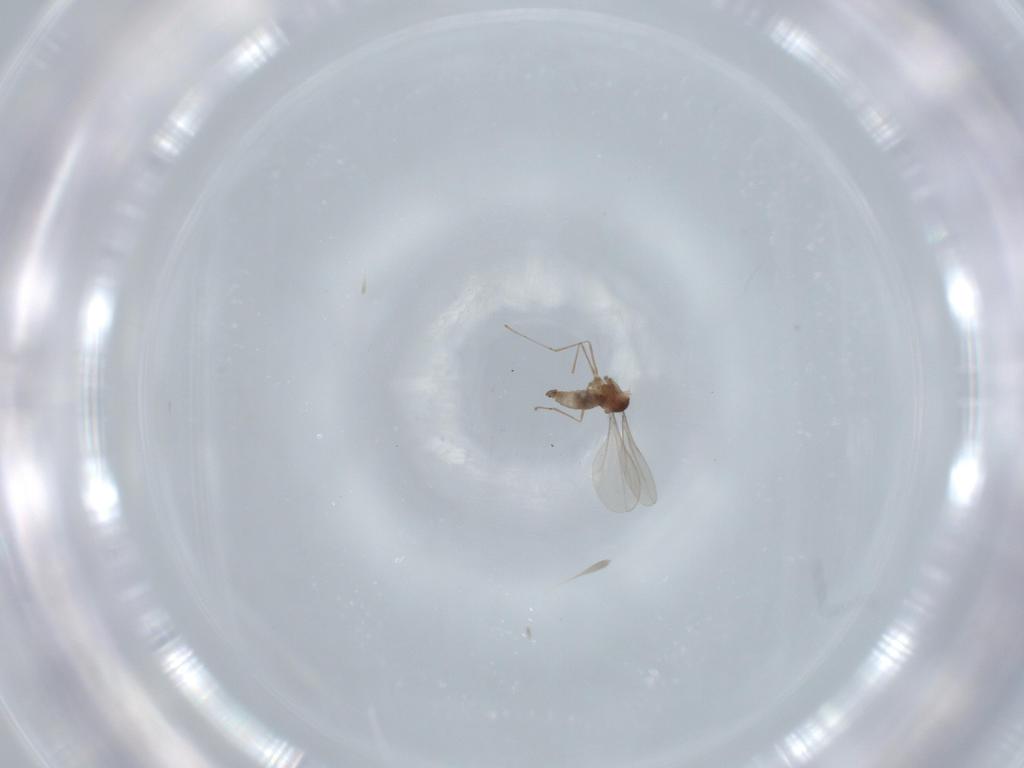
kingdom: Animalia
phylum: Arthropoda
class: Insecta
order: Diptera
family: Cecidomyiidae
